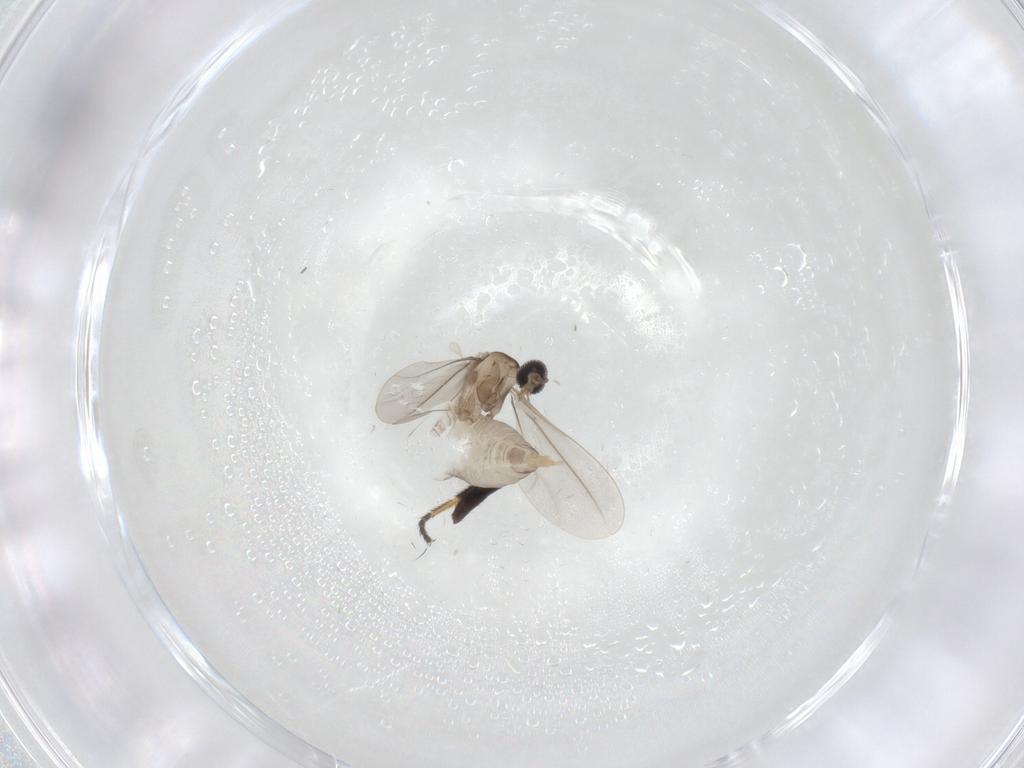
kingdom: Animalia
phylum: Arthropoda
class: Insecta
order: Diptera
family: Cecidomyiidae
